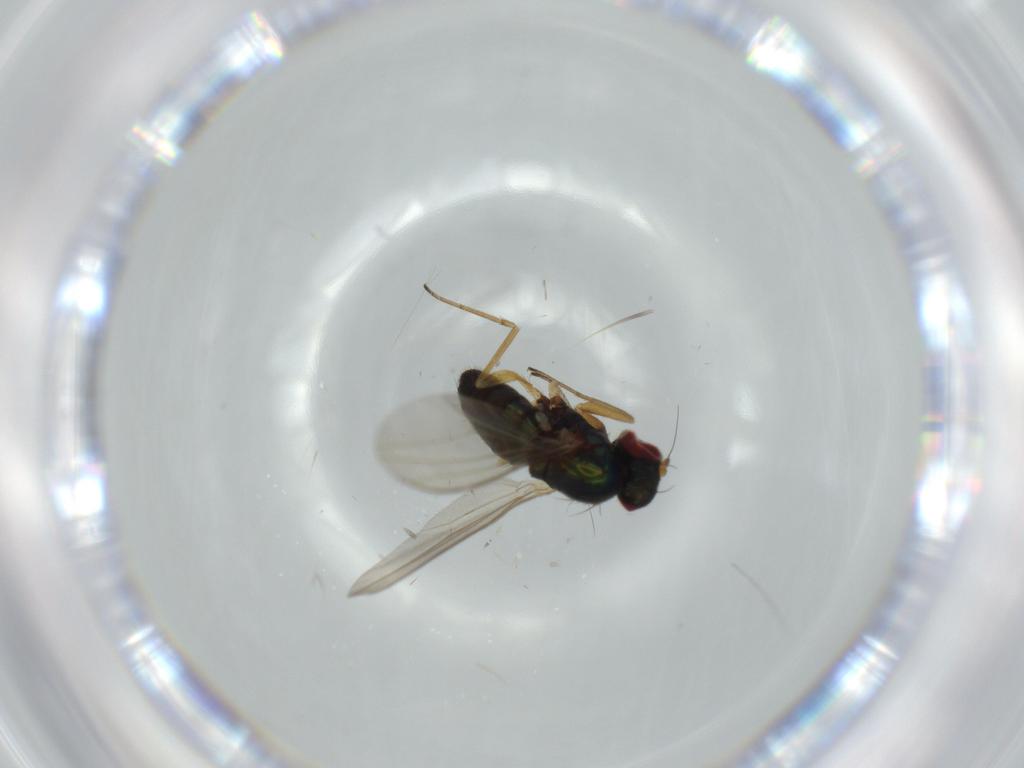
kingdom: Animalia
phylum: Arthropoda
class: Insecta
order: Diptera
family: Dolichopodidae
